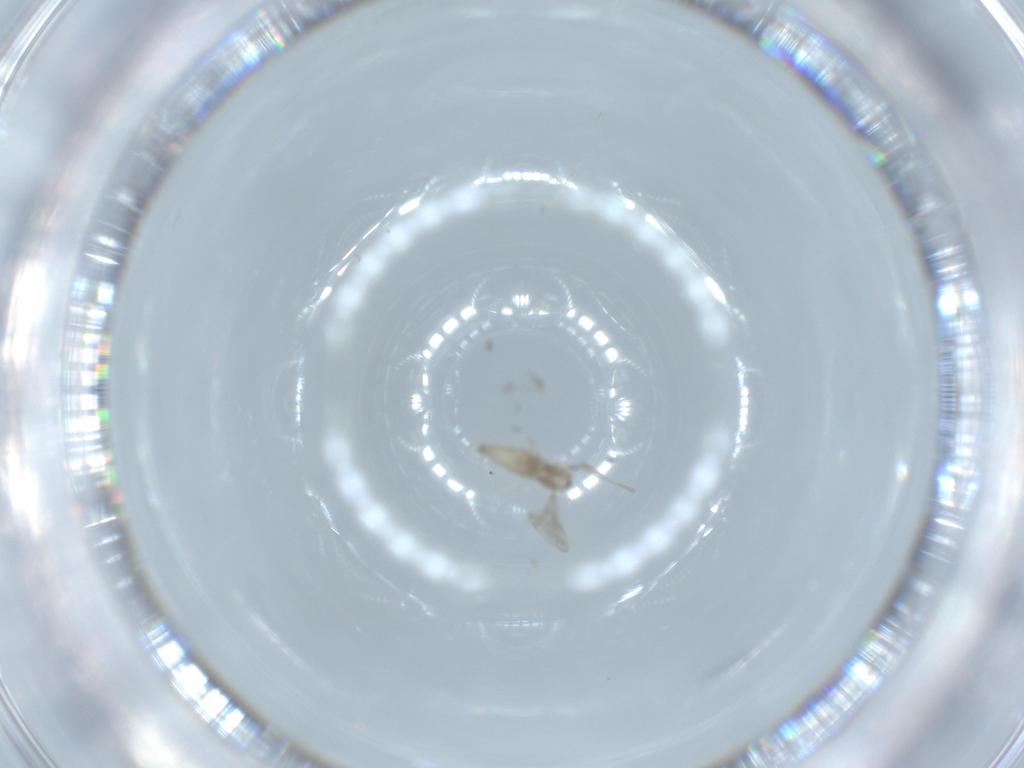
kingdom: Animalia
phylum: Arthropoda
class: Insecta
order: Diptera
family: Cecidomyiidae
